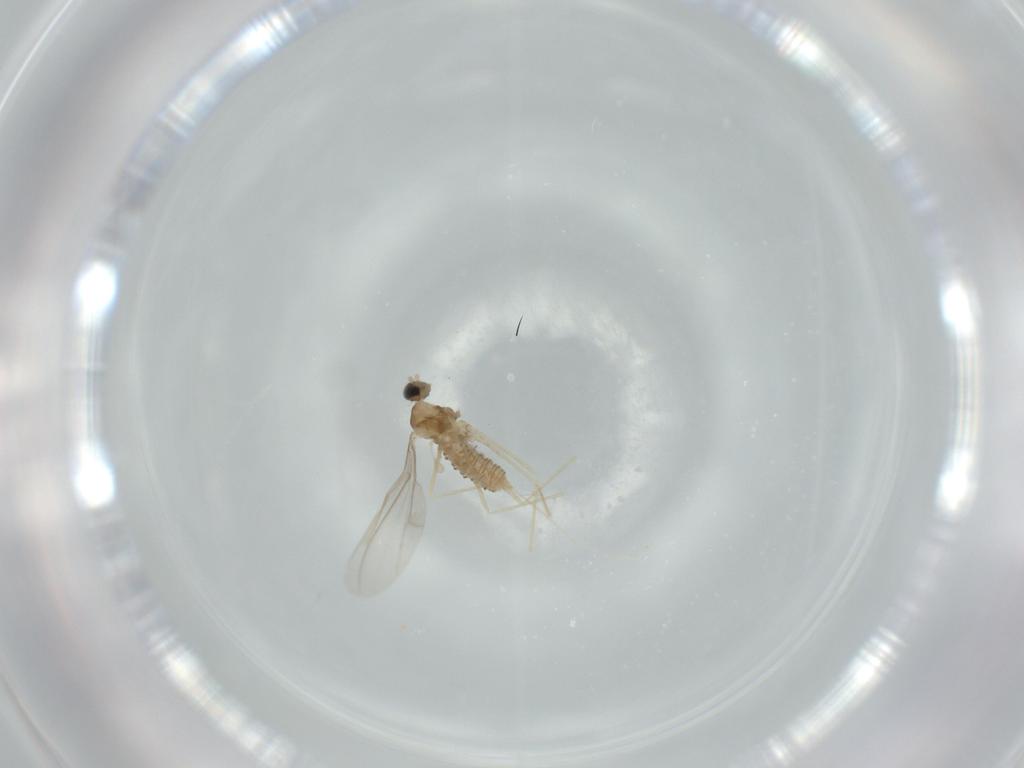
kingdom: Animalia
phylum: Arthropoda
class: Insecta
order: Diptera
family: Cecidomyiidae
